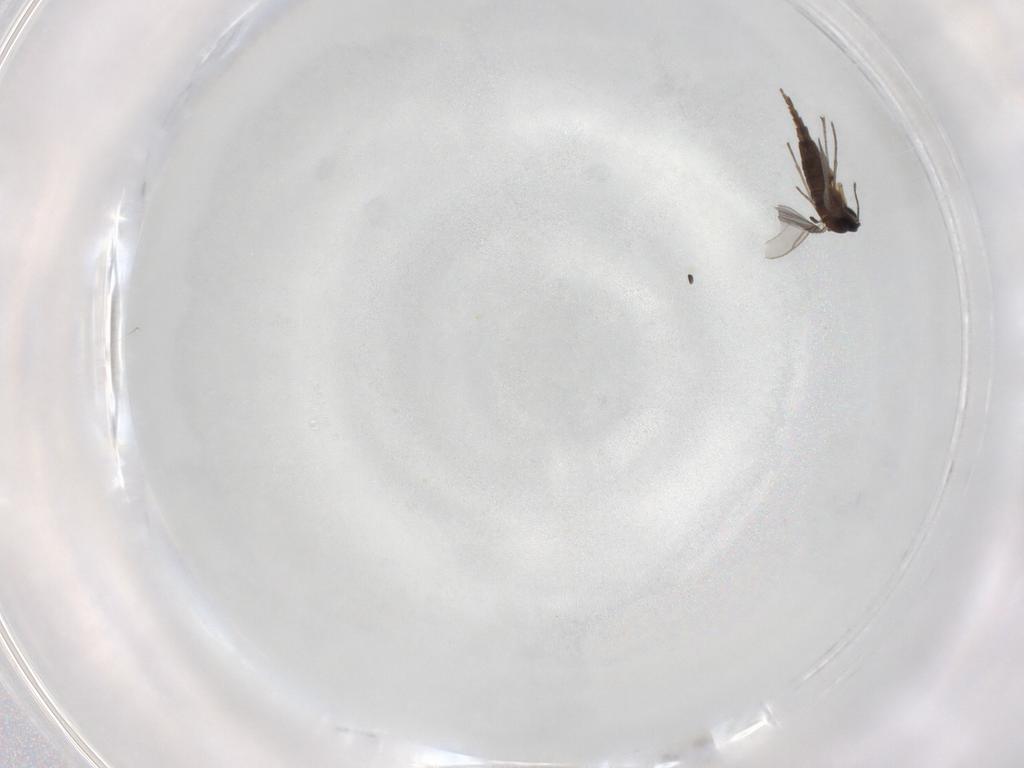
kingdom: Animalia
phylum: Arthropoda
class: Insecta
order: Diptera
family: Sciaridae
